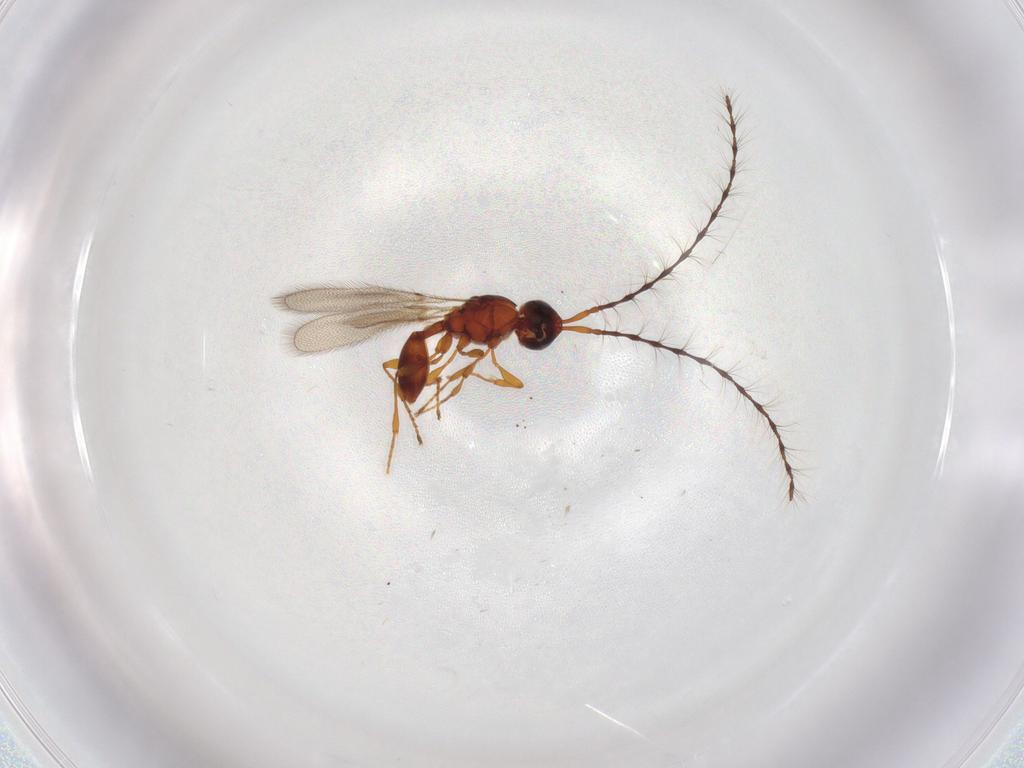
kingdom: Animalia
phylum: Arthropoda
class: Insecta
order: Hymenoptera
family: Diapriidae
